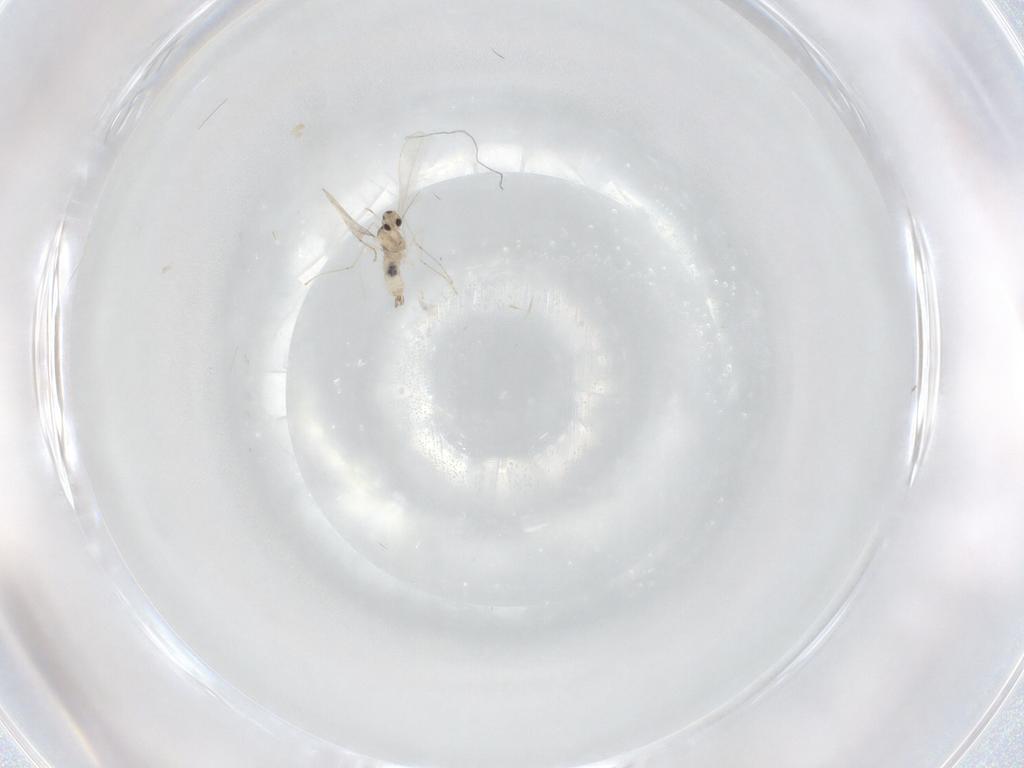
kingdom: Animalia
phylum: Arthropoda
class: Insecta
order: Diptera
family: Cecidomyiidae
